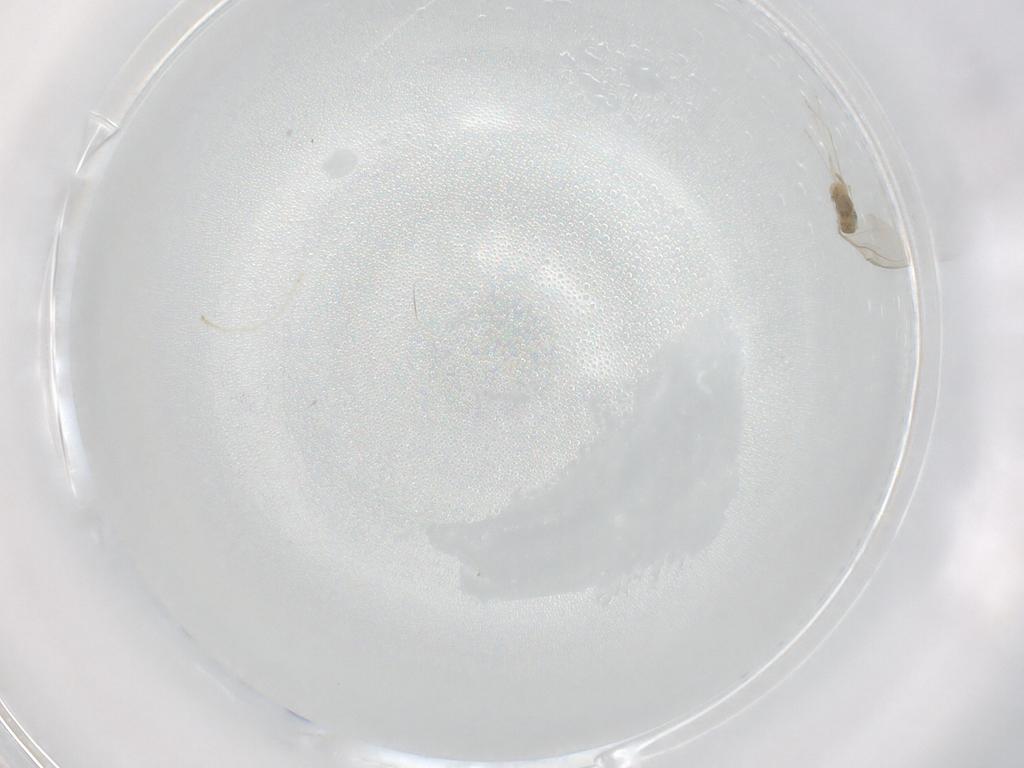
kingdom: Animalia
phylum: Arthropoda
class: Insecta
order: Diptera
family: Cecidomyiidae
